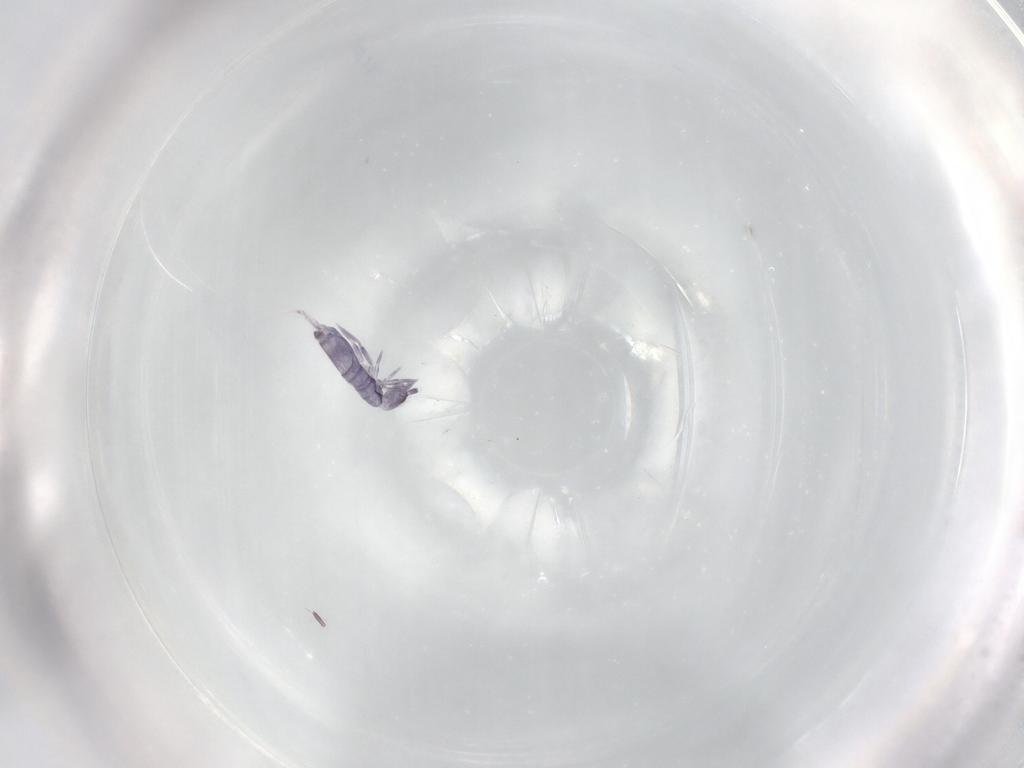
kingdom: Animalia
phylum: Arthropoda
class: Collembola
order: Entomobryomorpha
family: Entomobryidae
